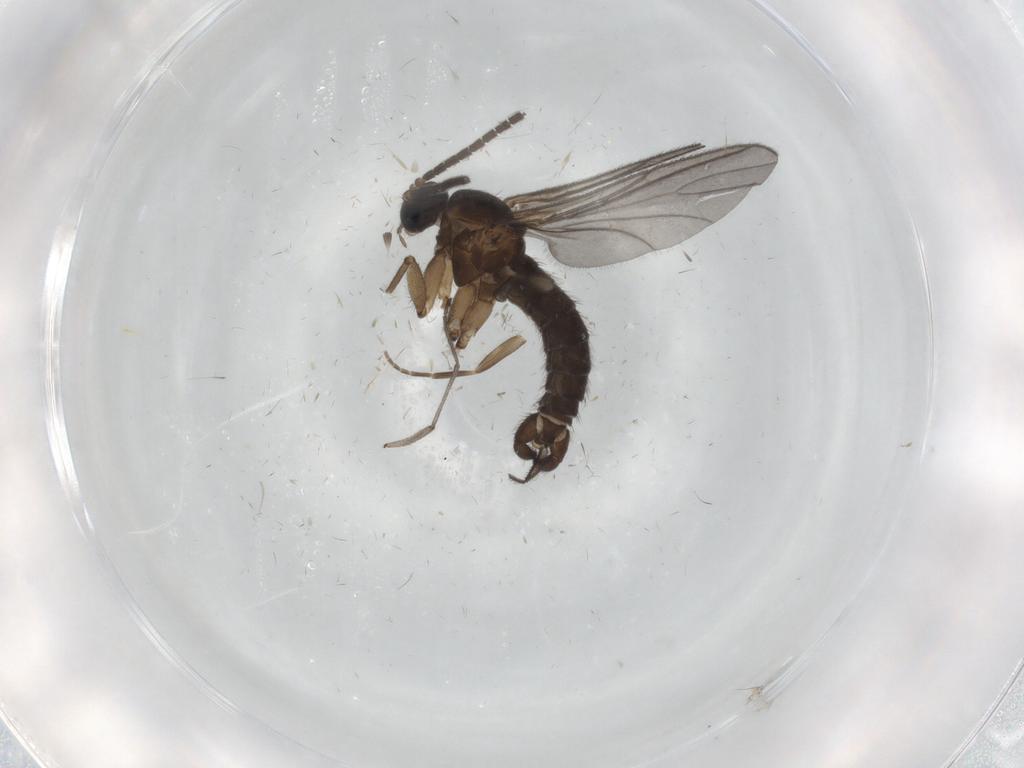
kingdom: Animalia
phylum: Arthropoda
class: Insecta
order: Diptera
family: Sciaridae
